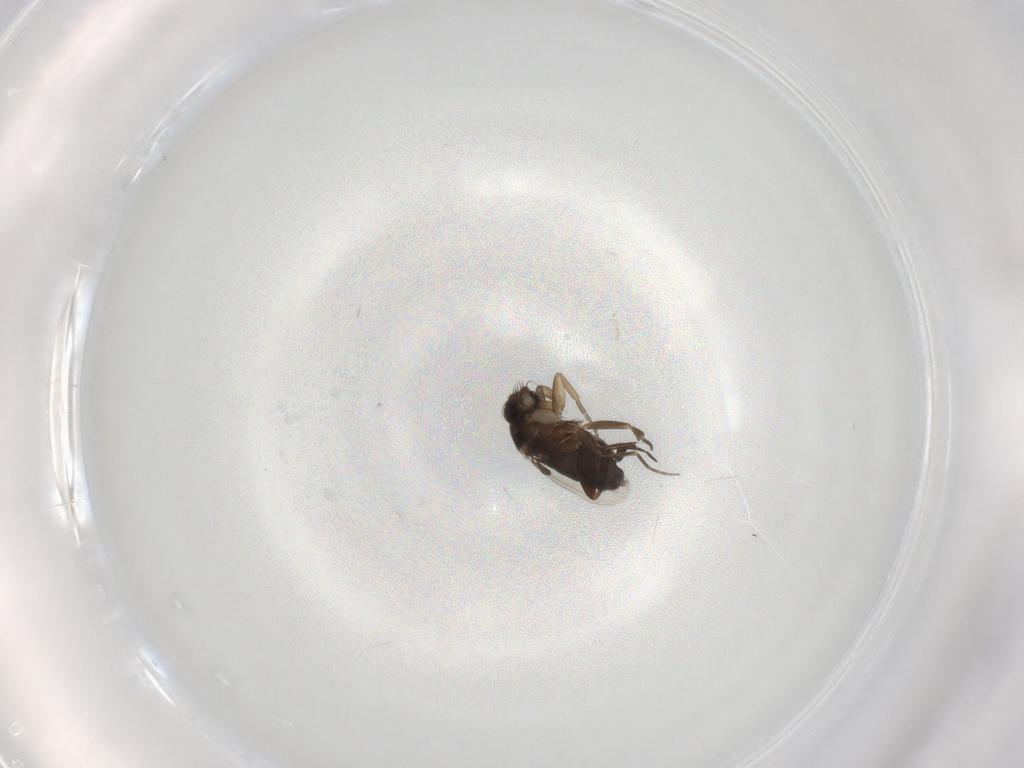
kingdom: Animalia
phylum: Arthropoda
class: Insecta
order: Diptera
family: Phoridae
